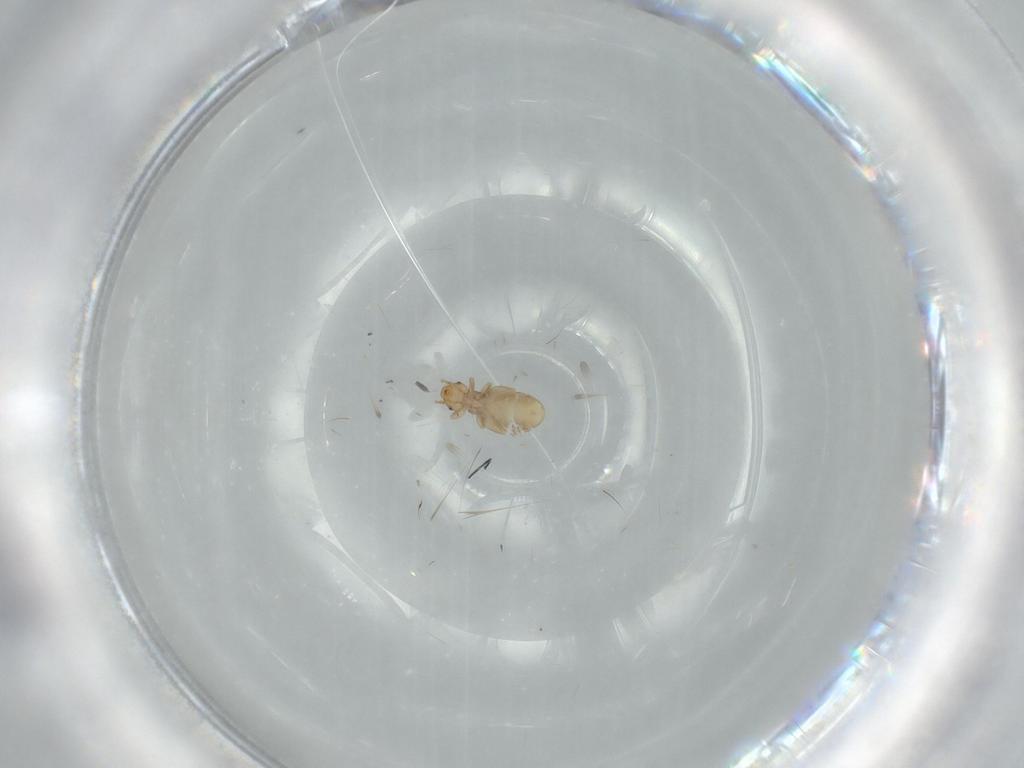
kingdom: Animalia
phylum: Arthropoda
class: Insecta
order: Psocodea
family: Liposcelididae
